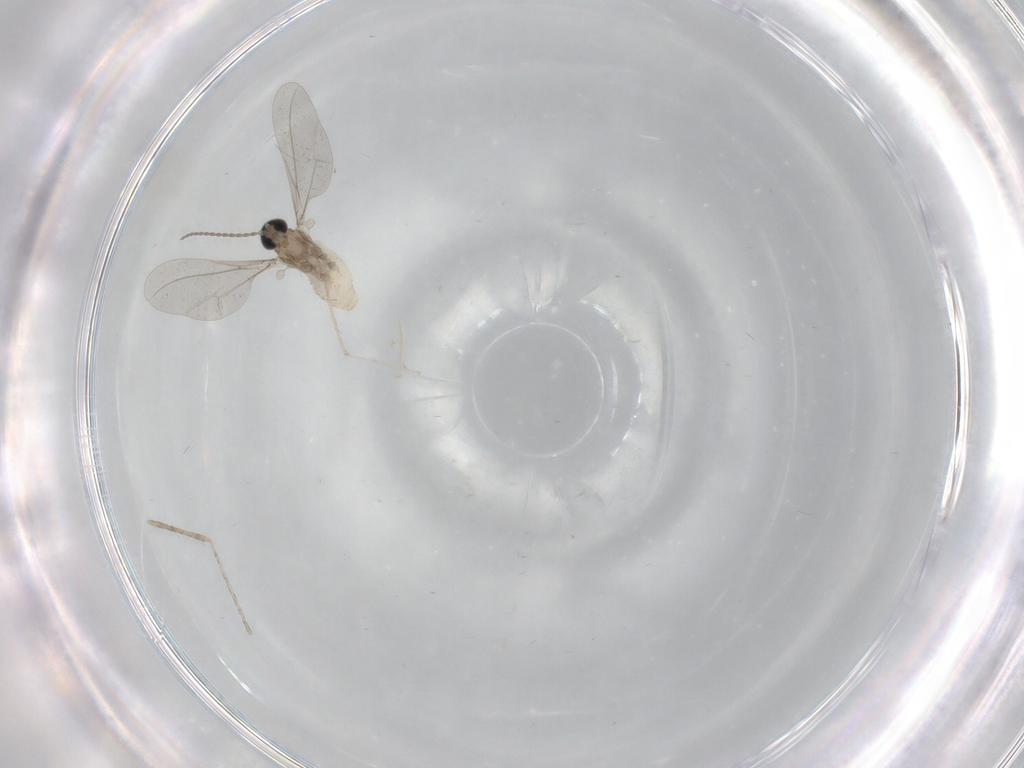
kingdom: Animalia
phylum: Arthropoda
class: Insecta
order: Diptera
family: Cecidomyiidae
